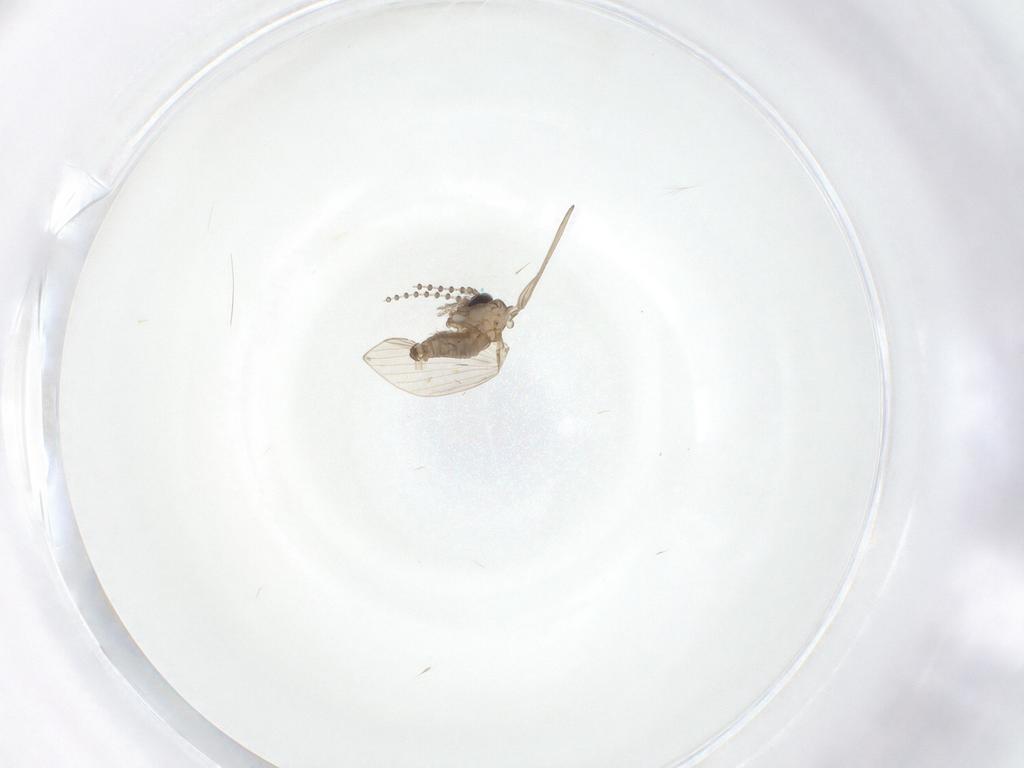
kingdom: Animalia
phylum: Arthropoda
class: Insecta
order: Diptera
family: Psychodidae
